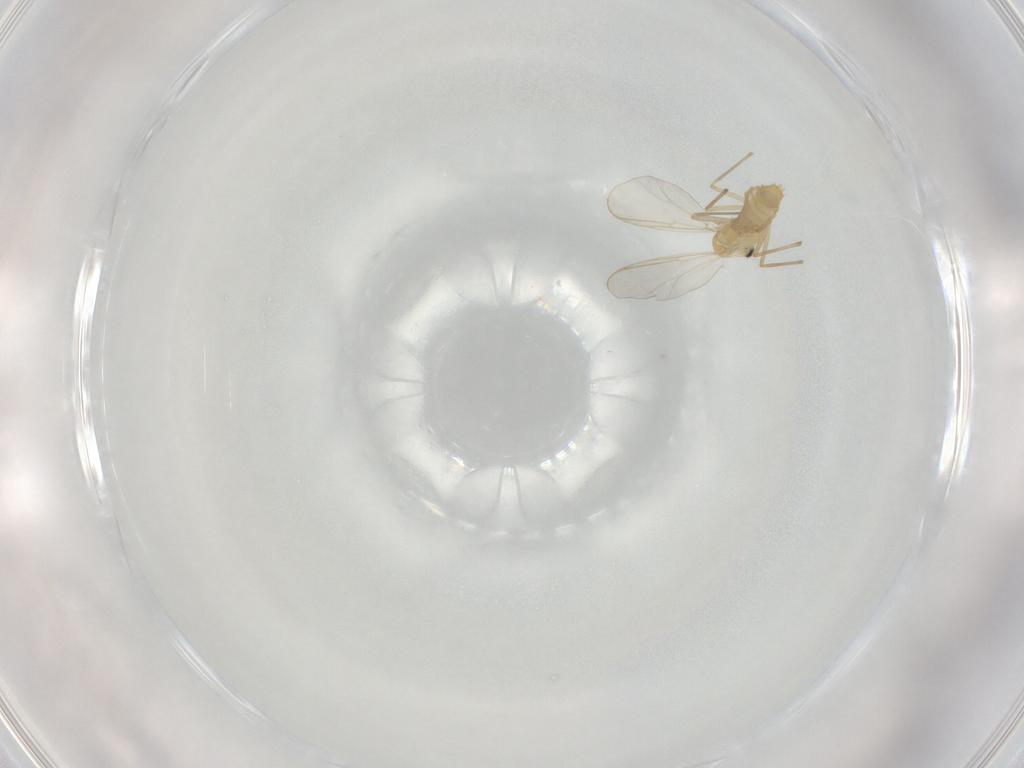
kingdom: Animalia
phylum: Arthropoda
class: Insecta
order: Diptera
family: Chironomidae
